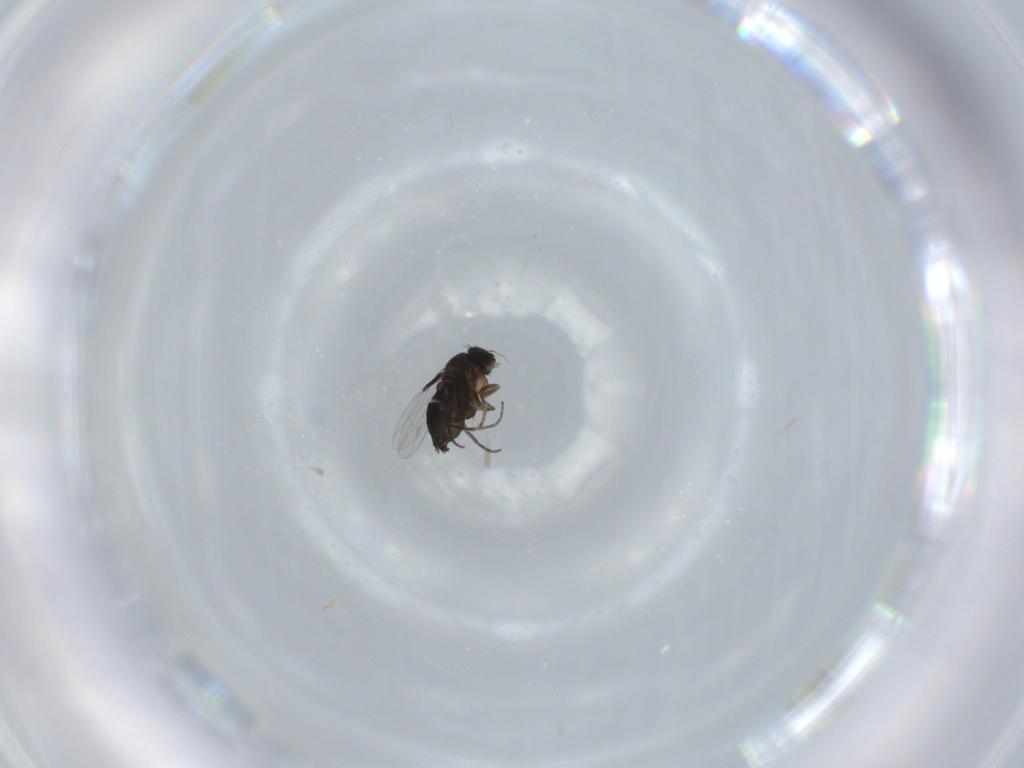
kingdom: Animalia
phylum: Arthropoda
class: Insecta
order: Diptera
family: Phoridae
